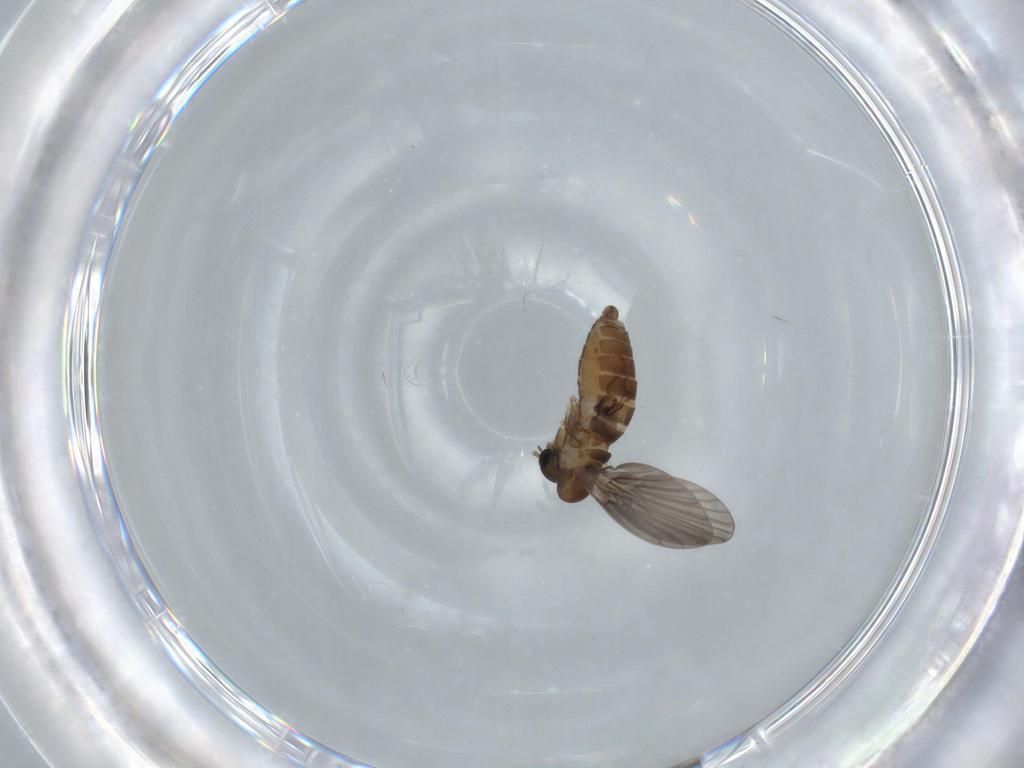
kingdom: Animalia
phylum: Arthropoda
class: Insecta
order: Diptera
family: Psychodidae
